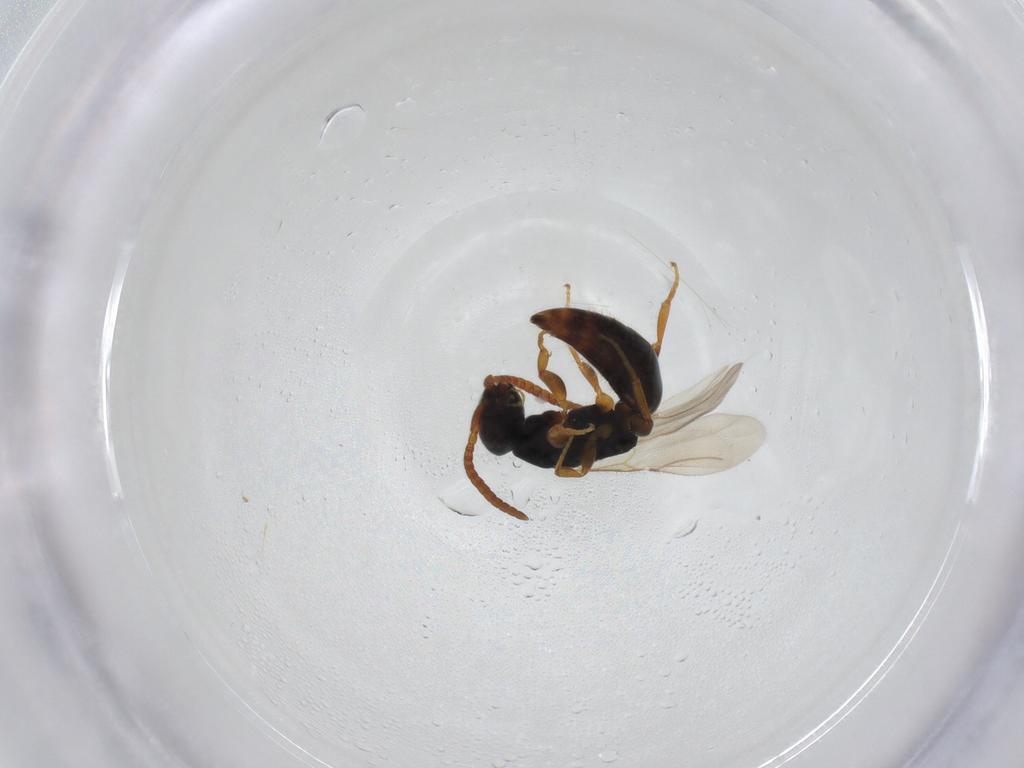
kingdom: Animalia
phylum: Arthropoda
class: Insecta
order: Hymenoptera
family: Bethylidae
